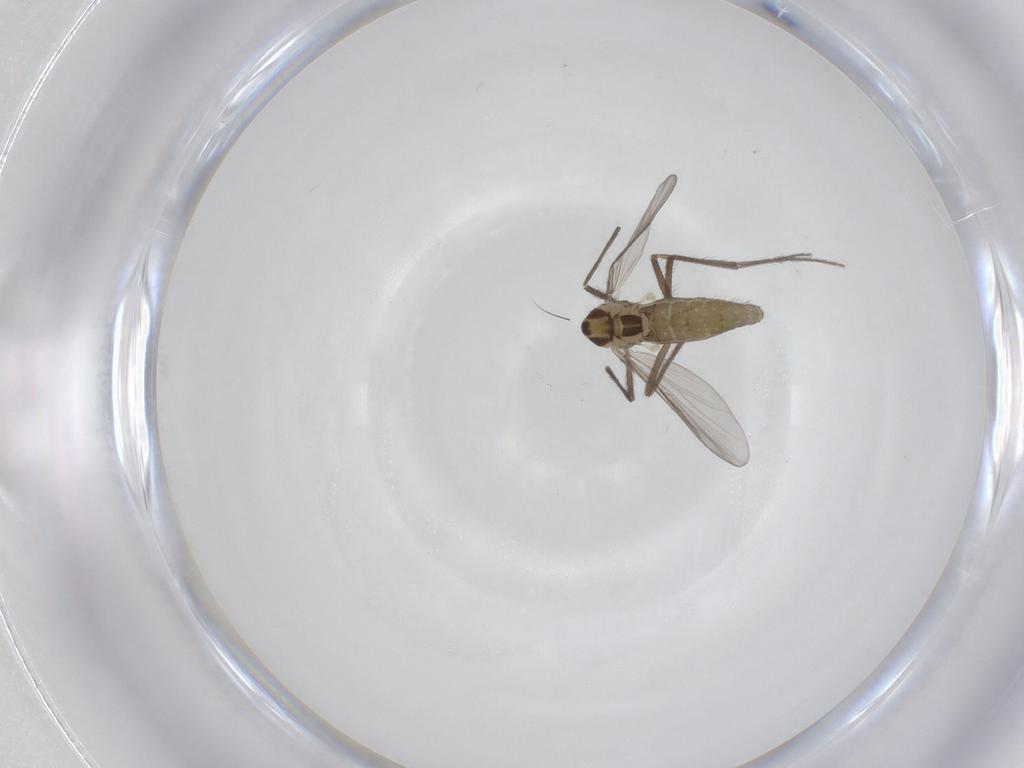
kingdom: Animalia
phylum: Arthropoda
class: Insecta
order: Diptera
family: Chironomidae
